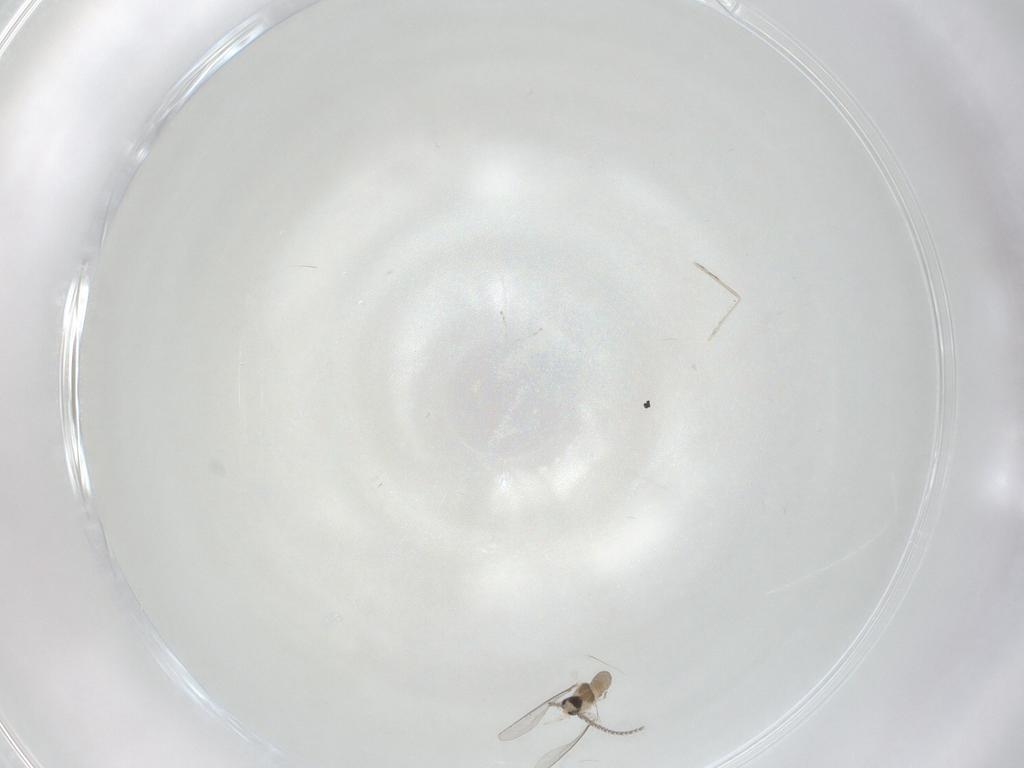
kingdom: Animalia
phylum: Arthropoda
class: Insecta
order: Diptera
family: Cecidomyiidae
